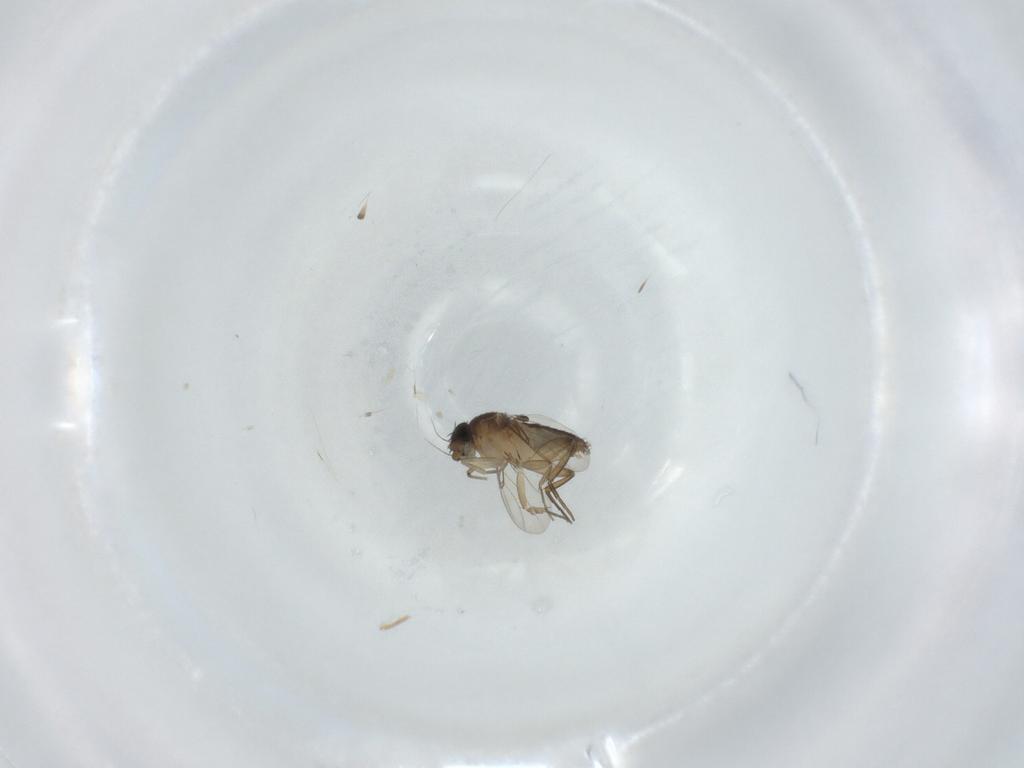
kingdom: Animalia
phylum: Arthropoda
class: Insecta
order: Diptera
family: Phoridae
